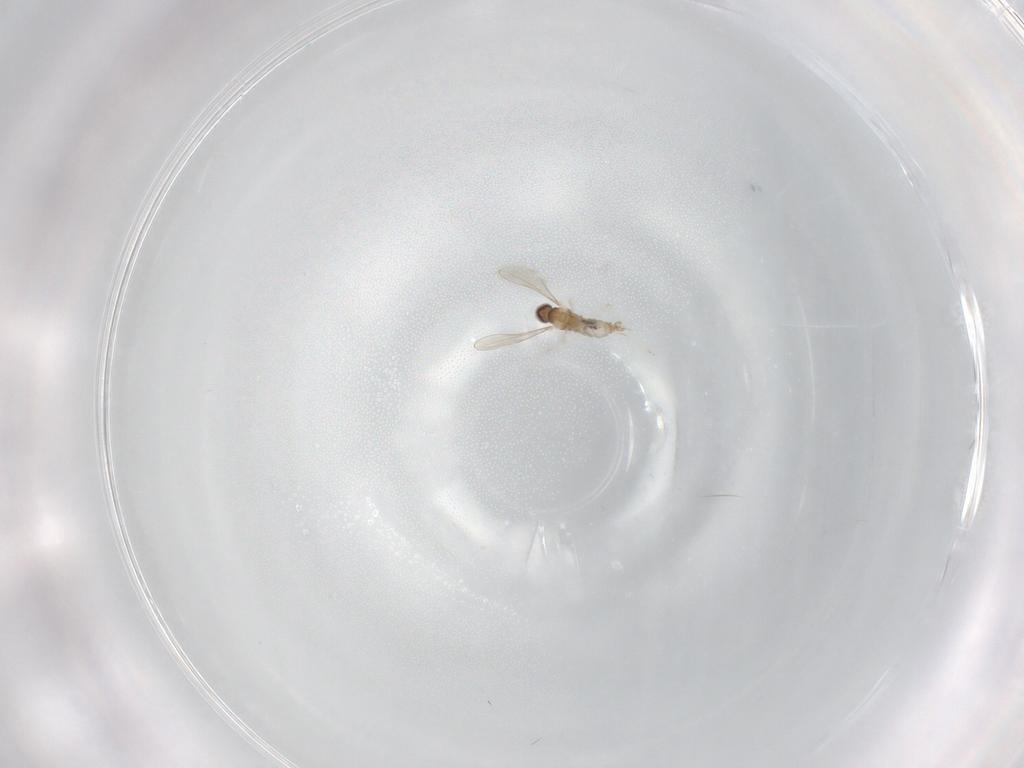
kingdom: Animalia
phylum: Arthropoda
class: Insecta
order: Diptera
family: Cecidomyiidae
